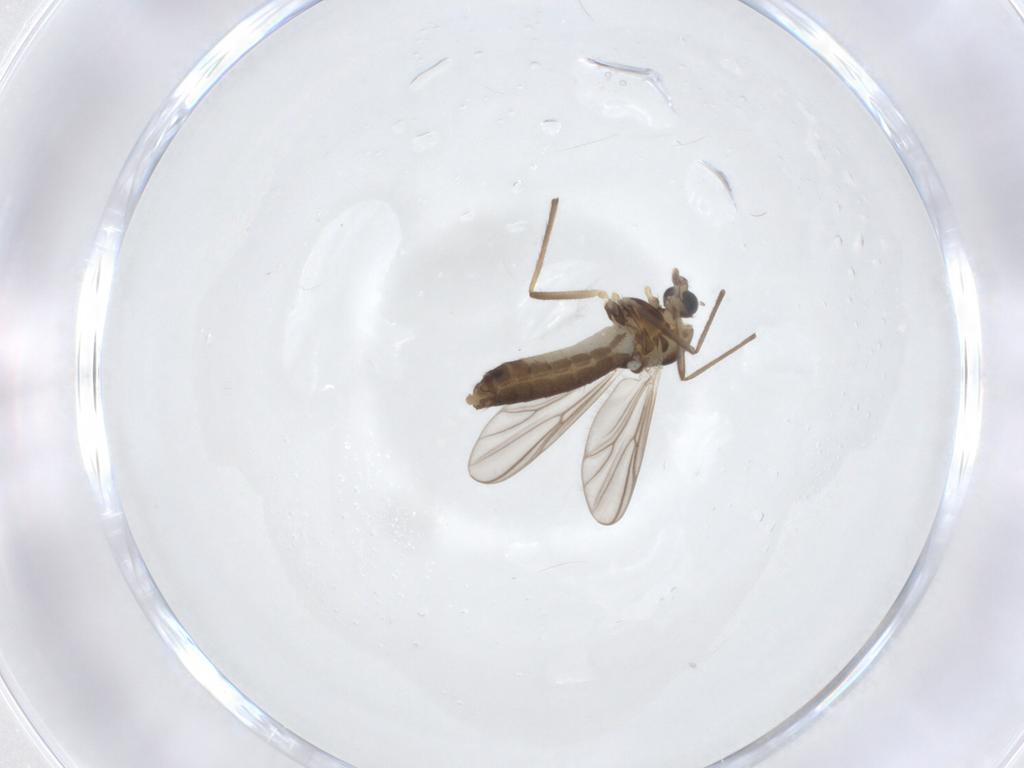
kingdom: Animalia
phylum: Arthropoda
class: Insecta
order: Diptera
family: Chironomidae
